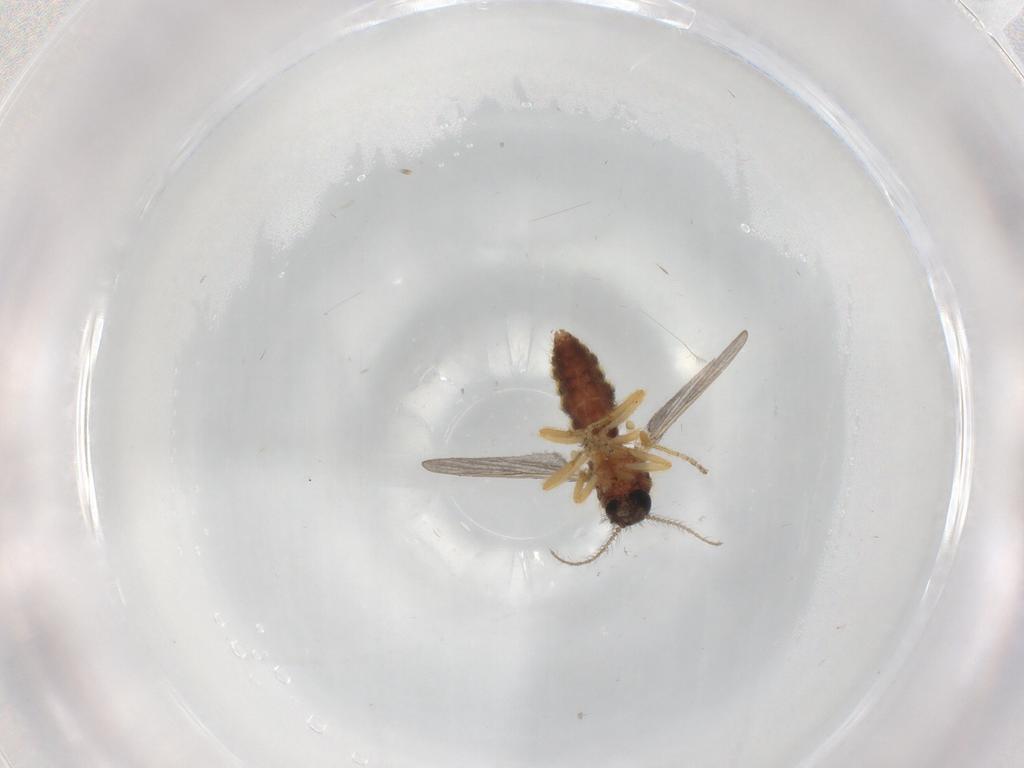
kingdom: Animalia
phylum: Arthropoda
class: Insecta
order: Diptera
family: Ceratopogonidae
